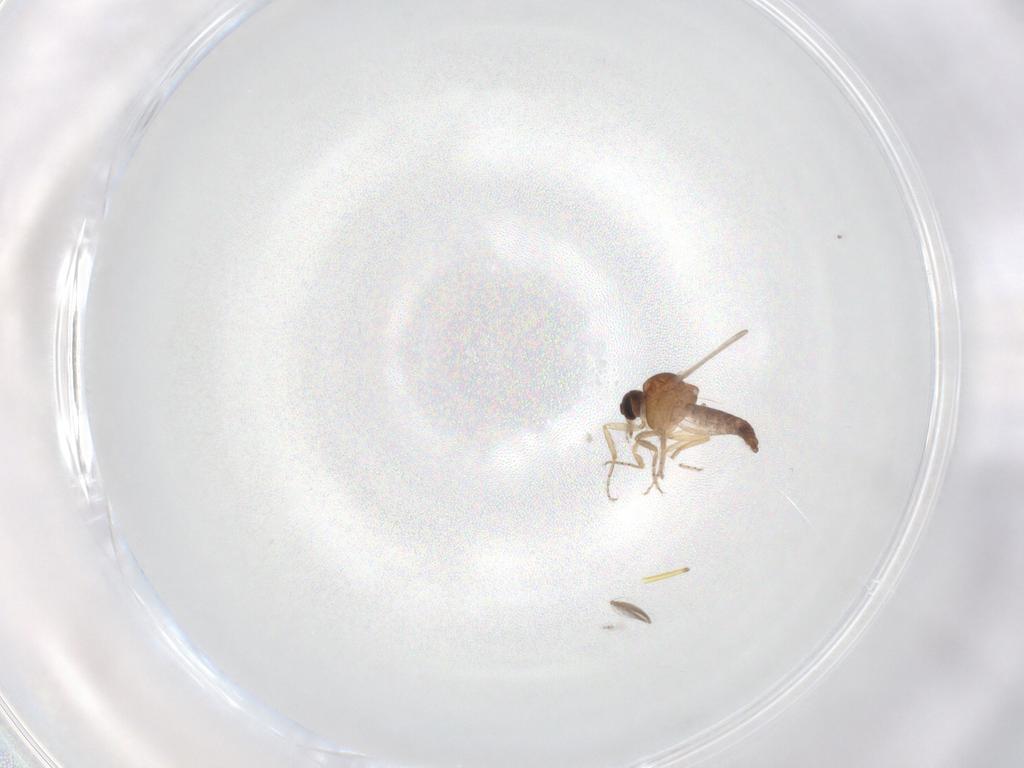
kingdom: Animalia
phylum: Arthropoda
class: Insecta
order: Diptera
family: Ceratopogonidae
